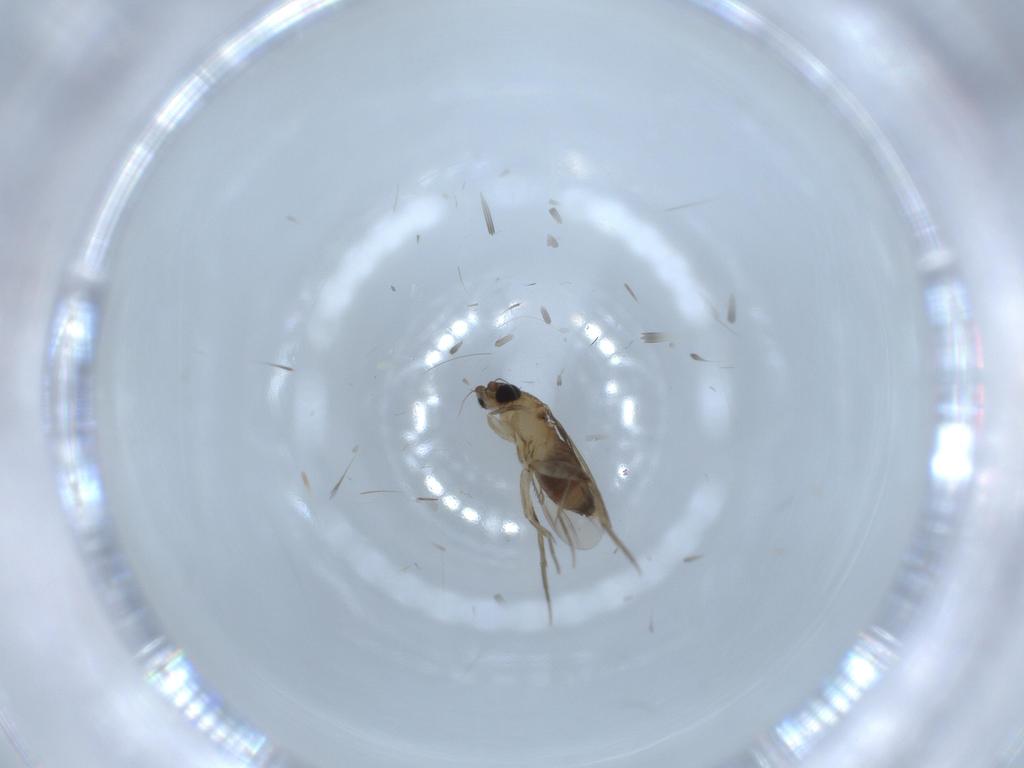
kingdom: Animalia
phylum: Arthropoda
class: Insecta
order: Diptera
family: Phoridae
